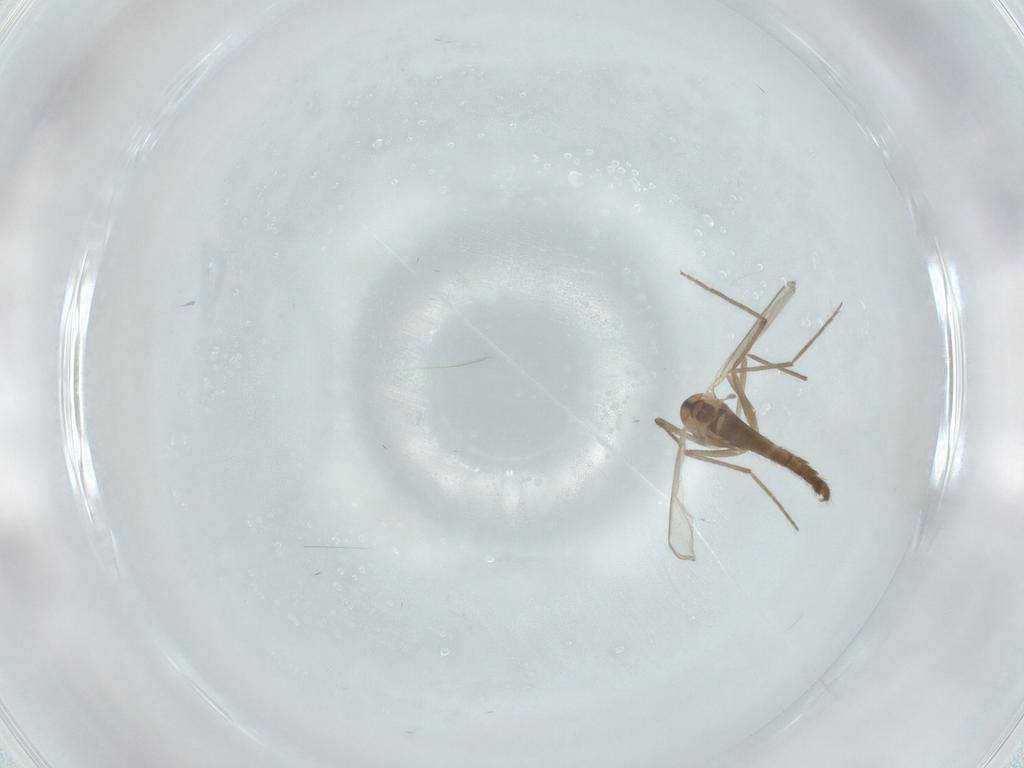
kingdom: Animalia
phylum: Arthropoda
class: Insecta
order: Diptera
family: Chironomidae
